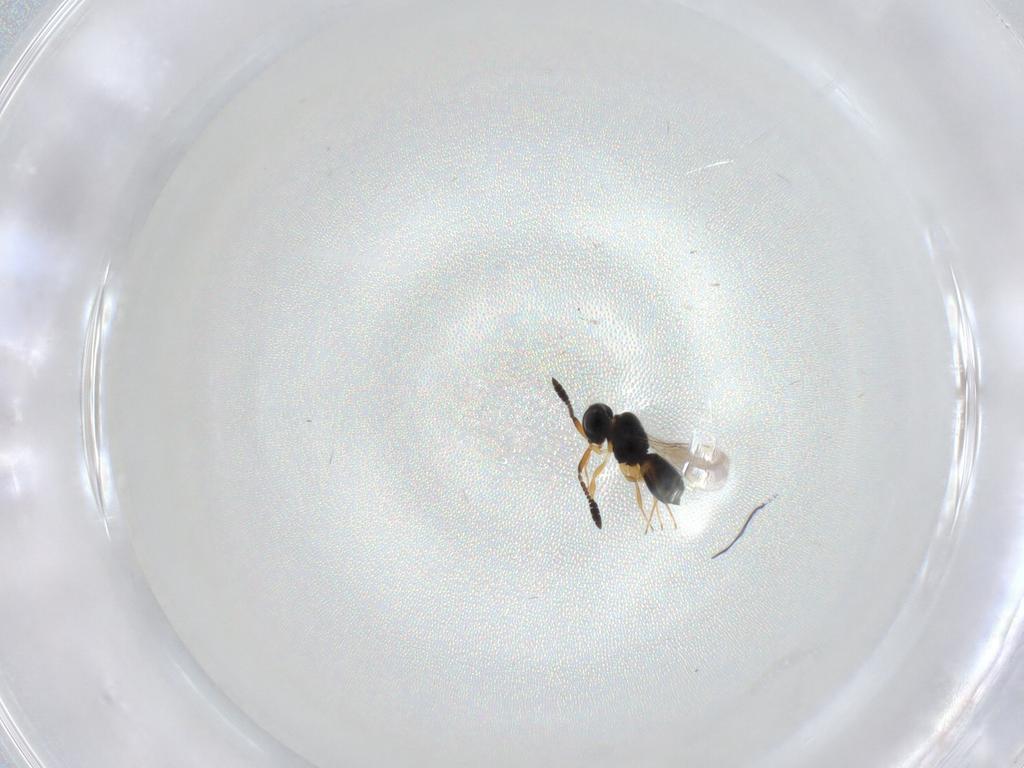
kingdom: Animalia
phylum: Arthropoda
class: Insecta
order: Hymenoptera
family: Scelionidae
